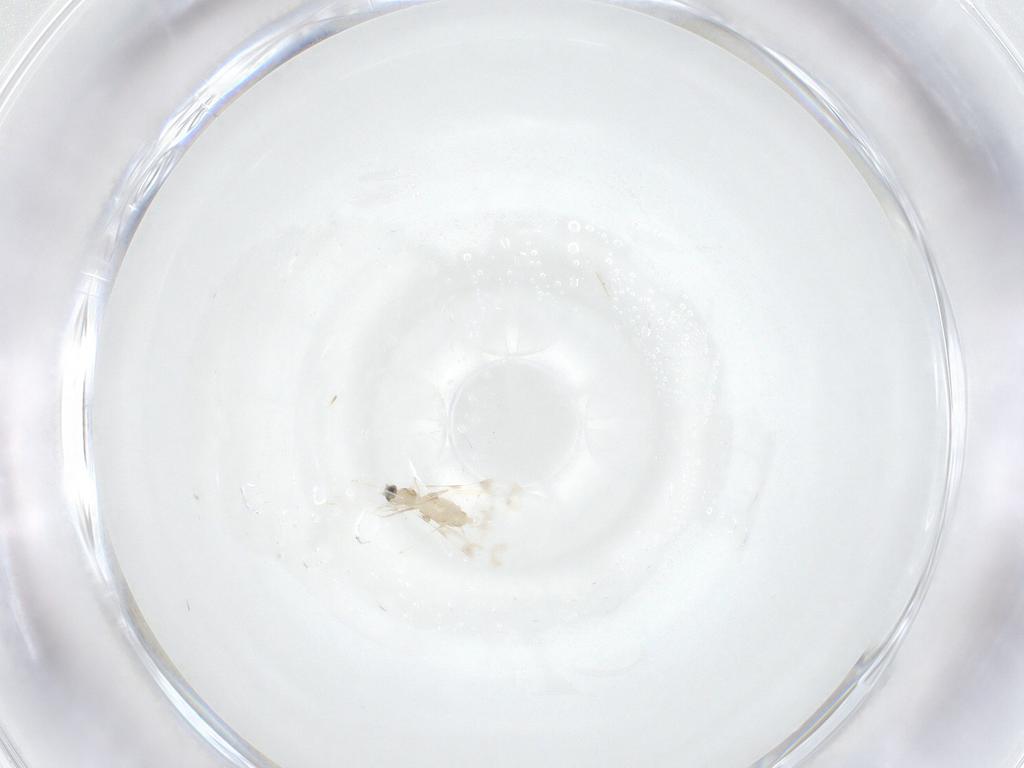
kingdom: Animalia
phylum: Arthropoda
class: Insecta
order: Diptera
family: Cecidomyiidae
